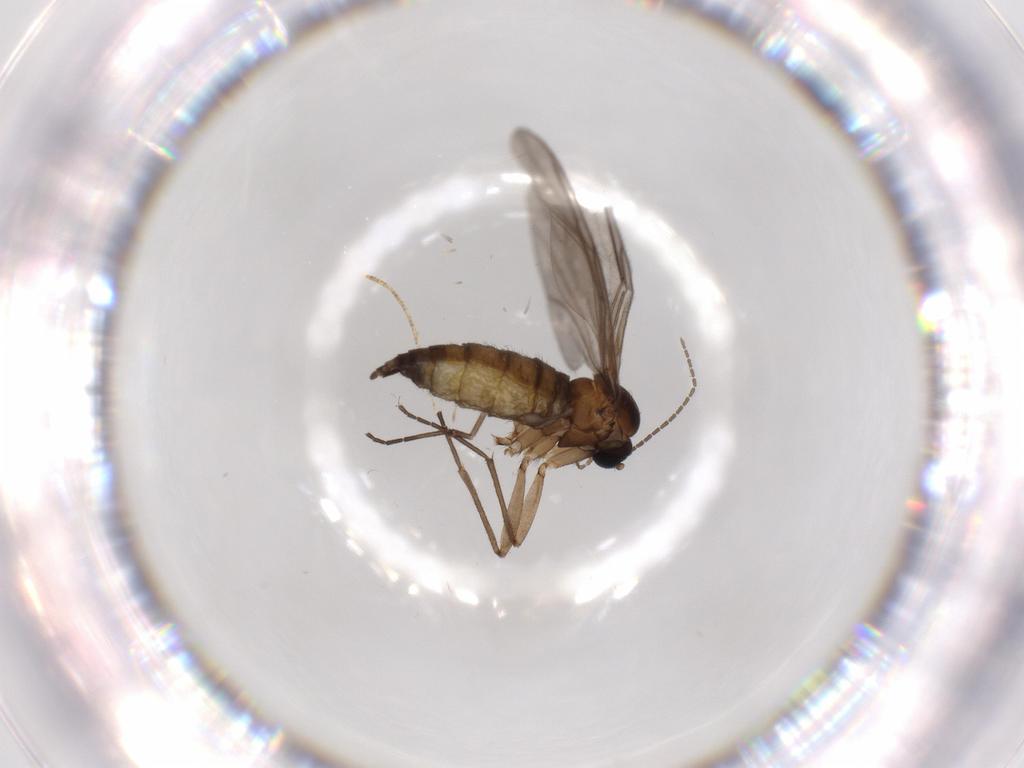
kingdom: Animalia
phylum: Arthropoda
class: Insecta
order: Diptera
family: Sciaridae
